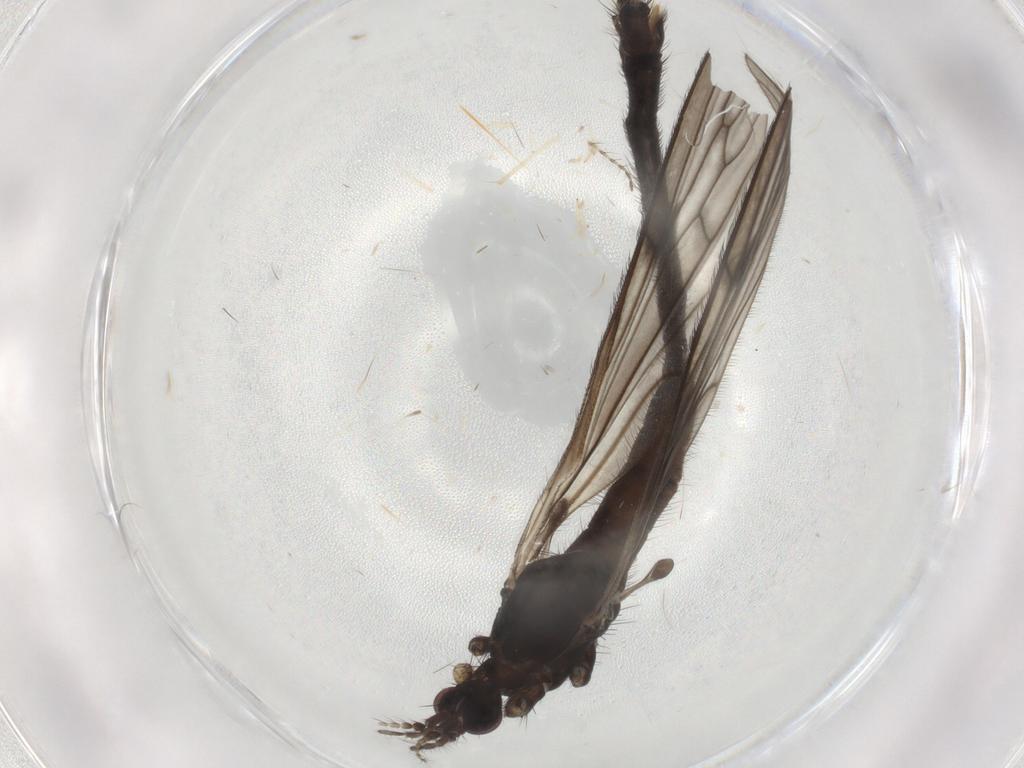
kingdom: Animalia
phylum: Arthropoda
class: Insecta
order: Diptera
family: Limoniidae
